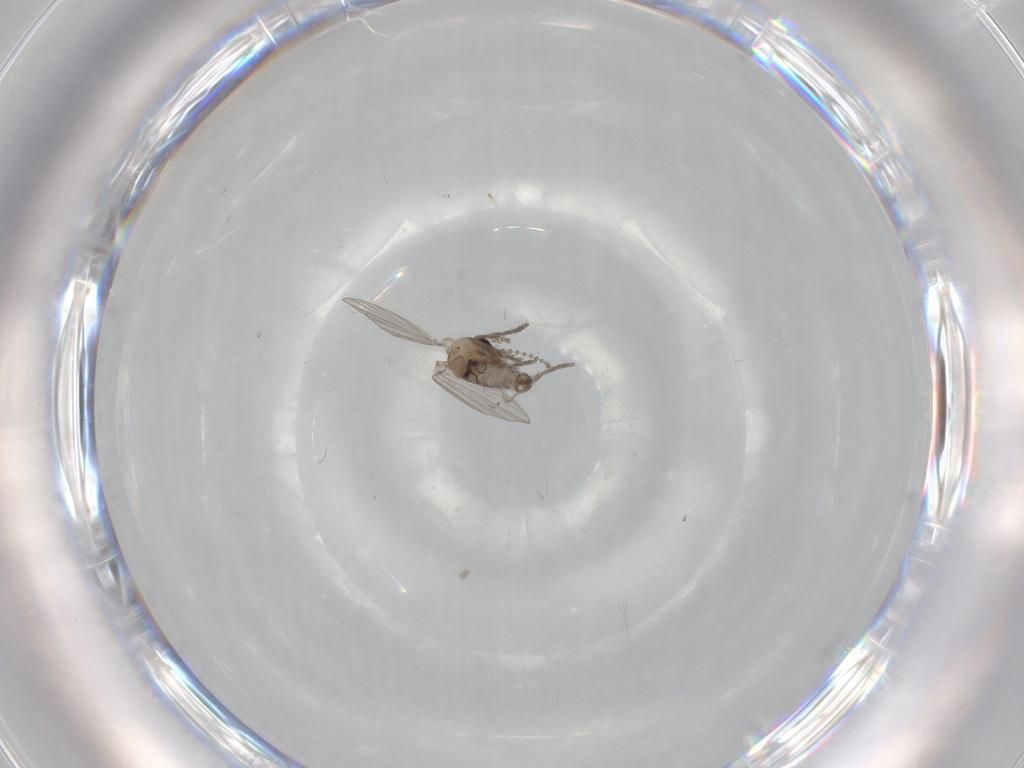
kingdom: Animalia
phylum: Arthropoda
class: Insecta
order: Diptera
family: Psychodidae
